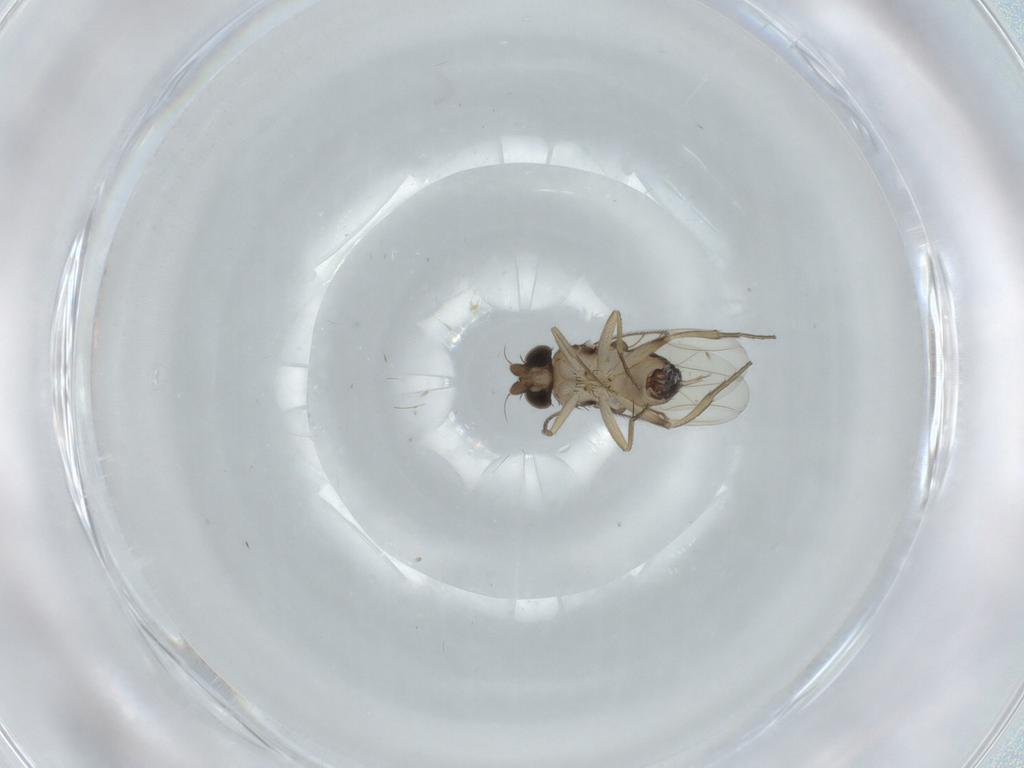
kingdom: Animalia
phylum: Arthropoda
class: Insecta
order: Diptera
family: Phoridae
